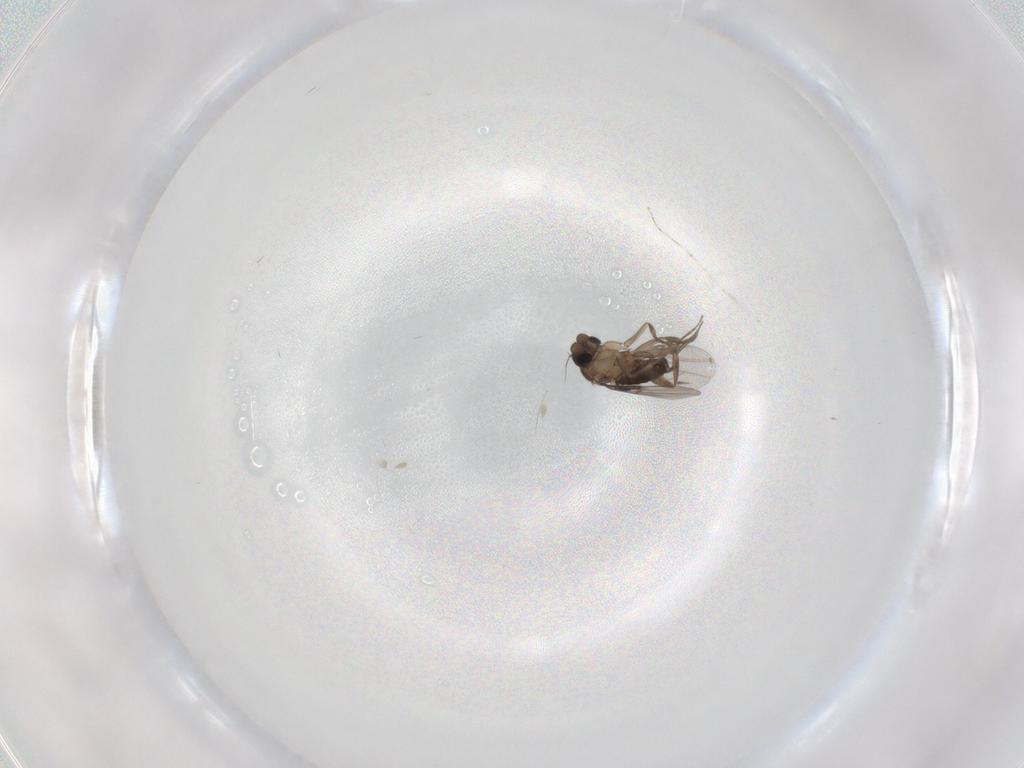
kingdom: Animalia
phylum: Arthropoda
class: Insecta
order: Diptera
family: Phoridae
